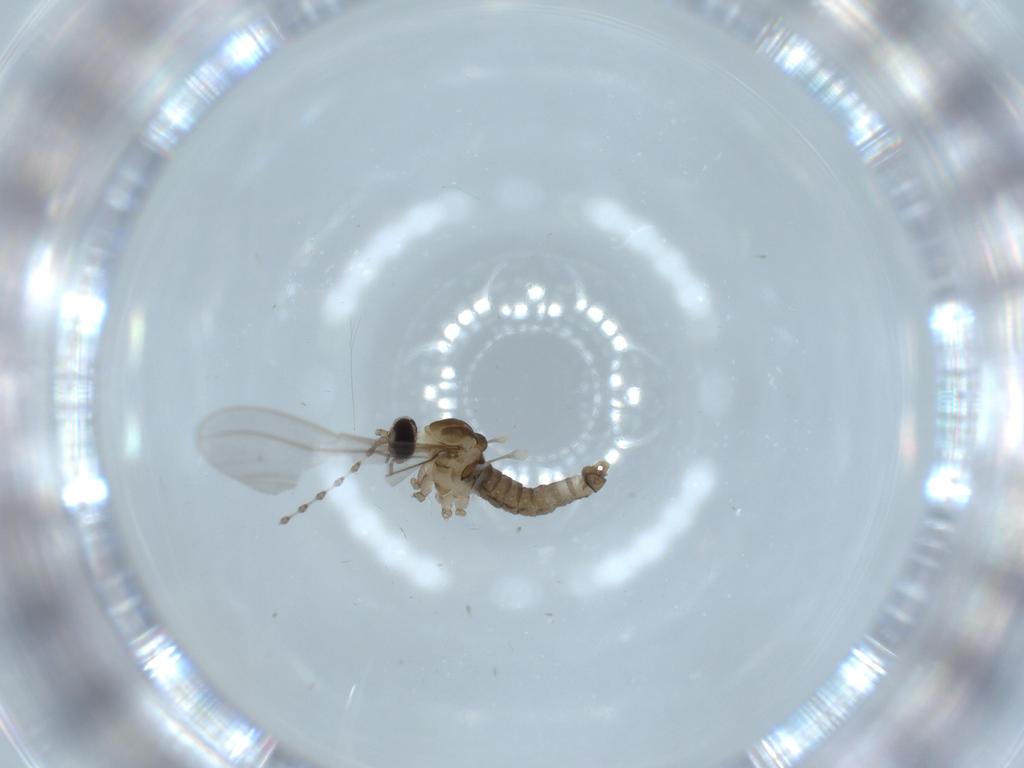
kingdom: Animalia
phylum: Arthropoda
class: Insecta
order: Diptera
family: Cecidomyiidae
